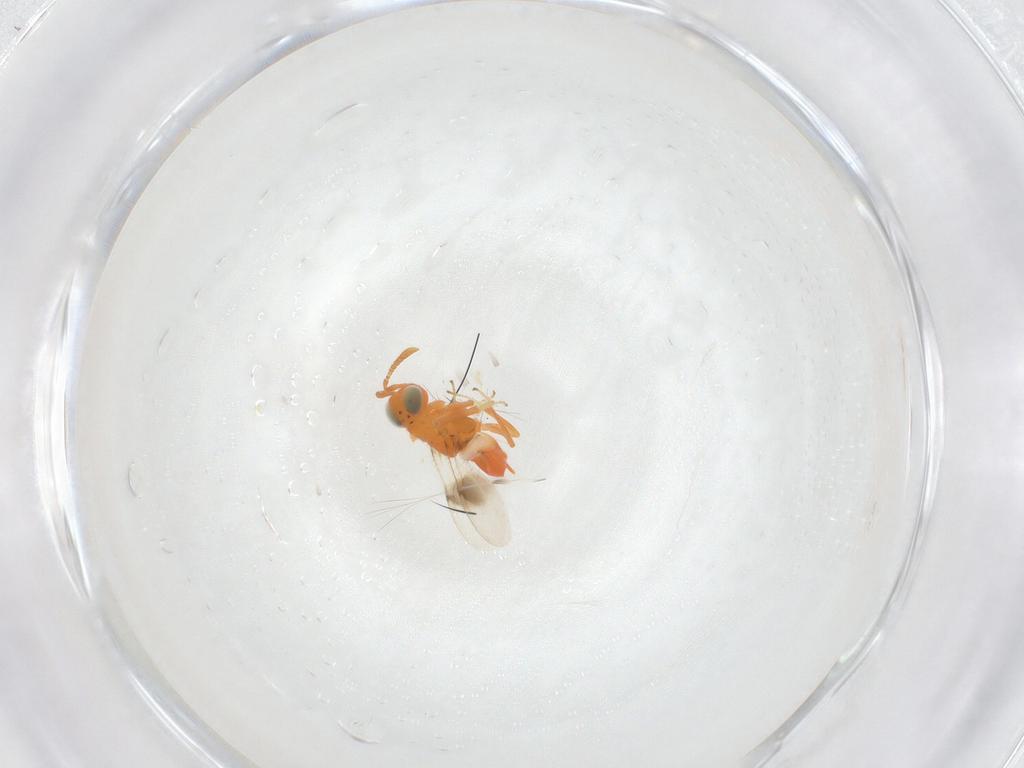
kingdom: Animalia
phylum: Arthropoda
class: Insecta
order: Hymenoptera
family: Encyrtidae
